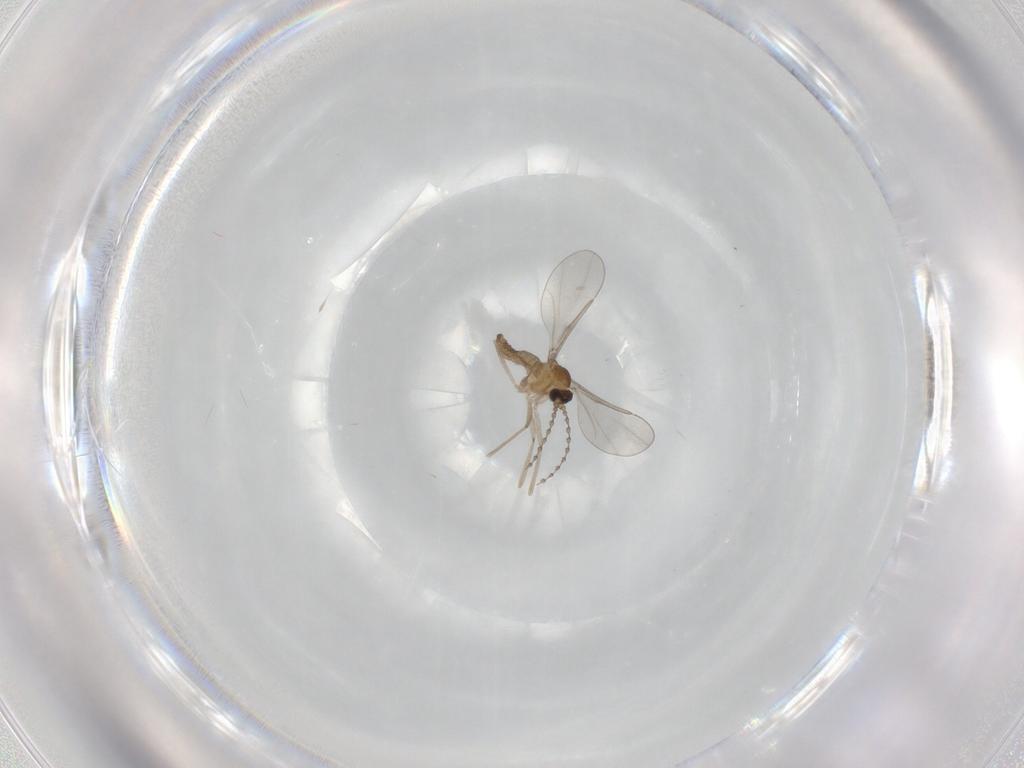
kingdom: Animalia
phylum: Arthropoda
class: Insecta
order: Diptera
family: Cecidomyiidae
